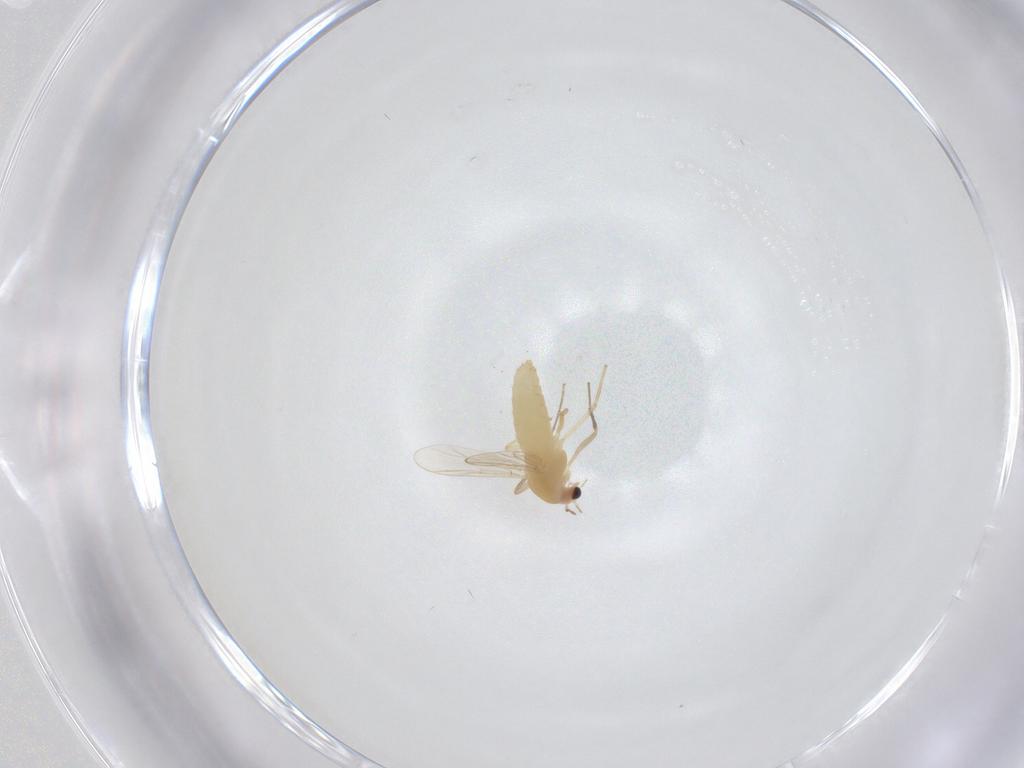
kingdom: Animalia
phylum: Arthropoda
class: Insecta
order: Diptera
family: Chironomidae
